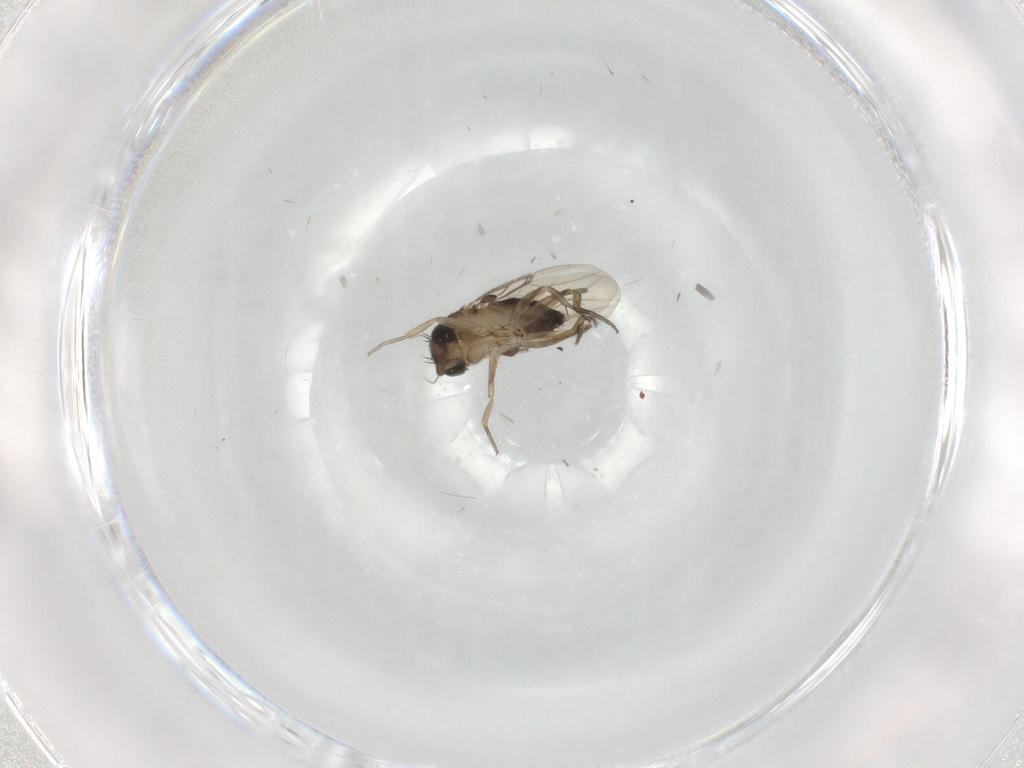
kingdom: Animalia
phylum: Arthropoda
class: Insecta
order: Diptera
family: Phoridae
